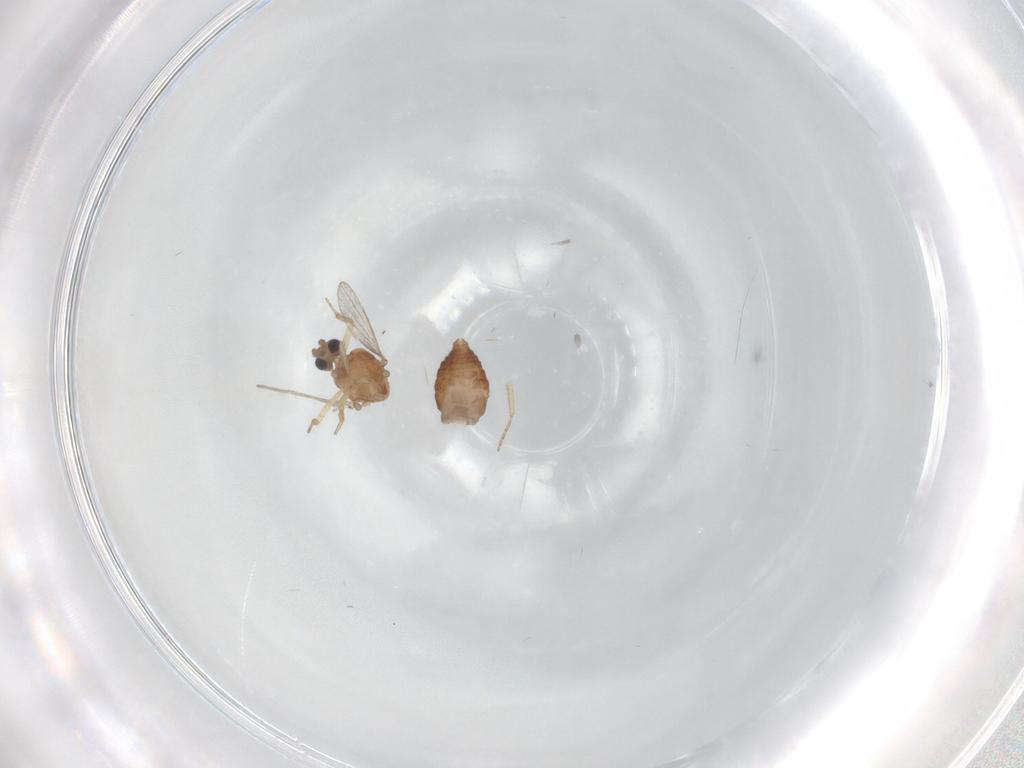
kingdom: Animalia
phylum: Arthropoda
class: Insecta
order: Diptera
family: Ceratopogonidae
